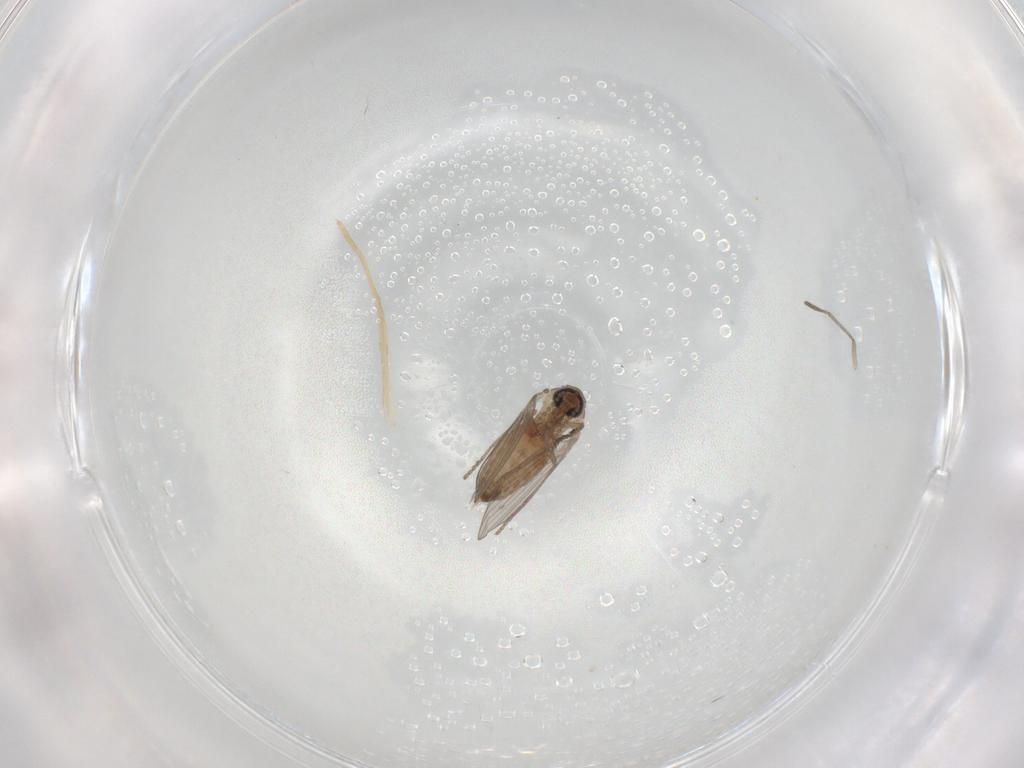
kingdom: Animalia
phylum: Arthropoda
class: Insecta
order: Diptera
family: Psychodidae
